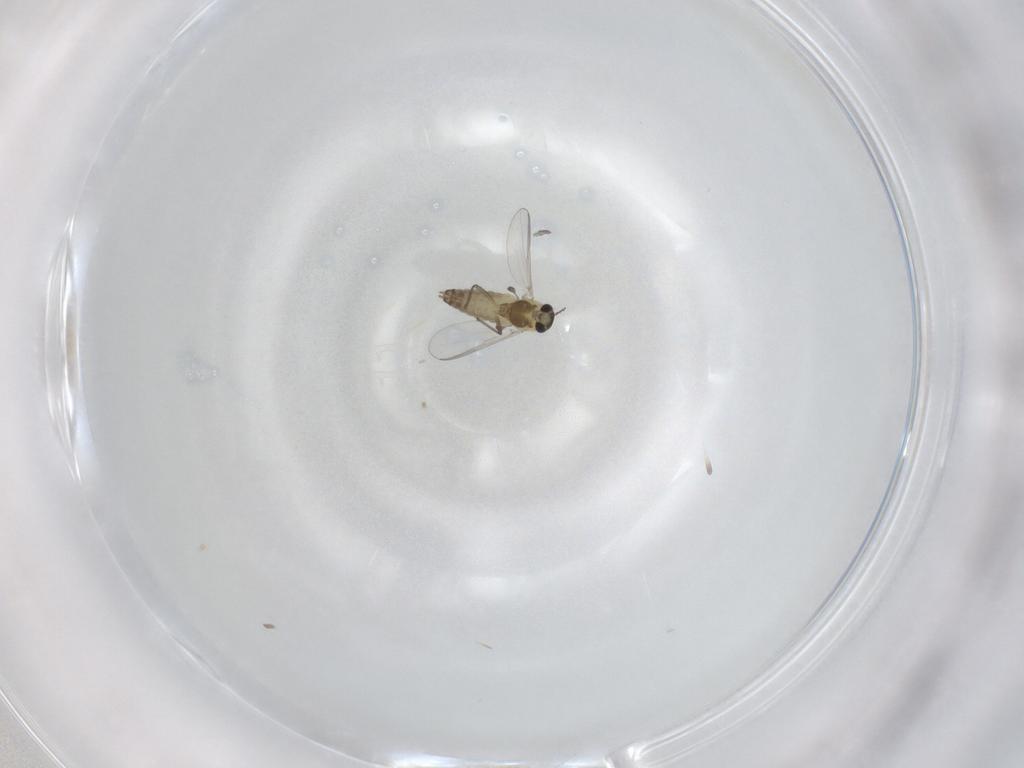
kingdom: Animalia
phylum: Arthropoda
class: Insecta
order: Diptera
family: Chironomidae
